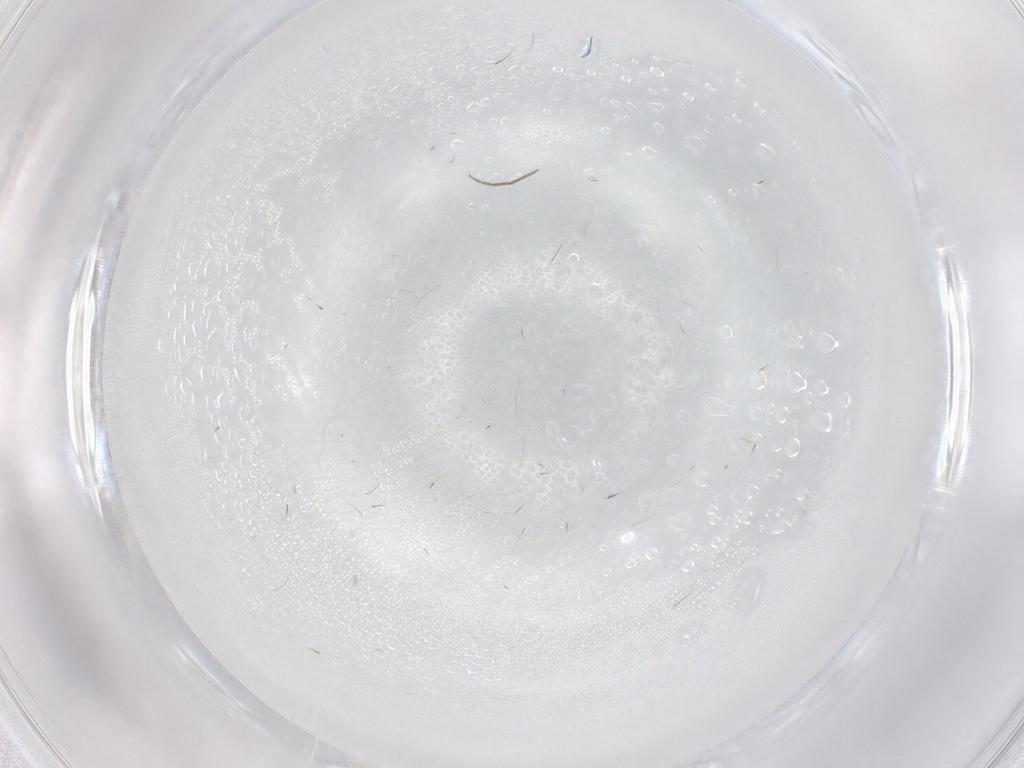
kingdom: Animalia
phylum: Arthropoda
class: Insecta
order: Diptera
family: Chironomidae
